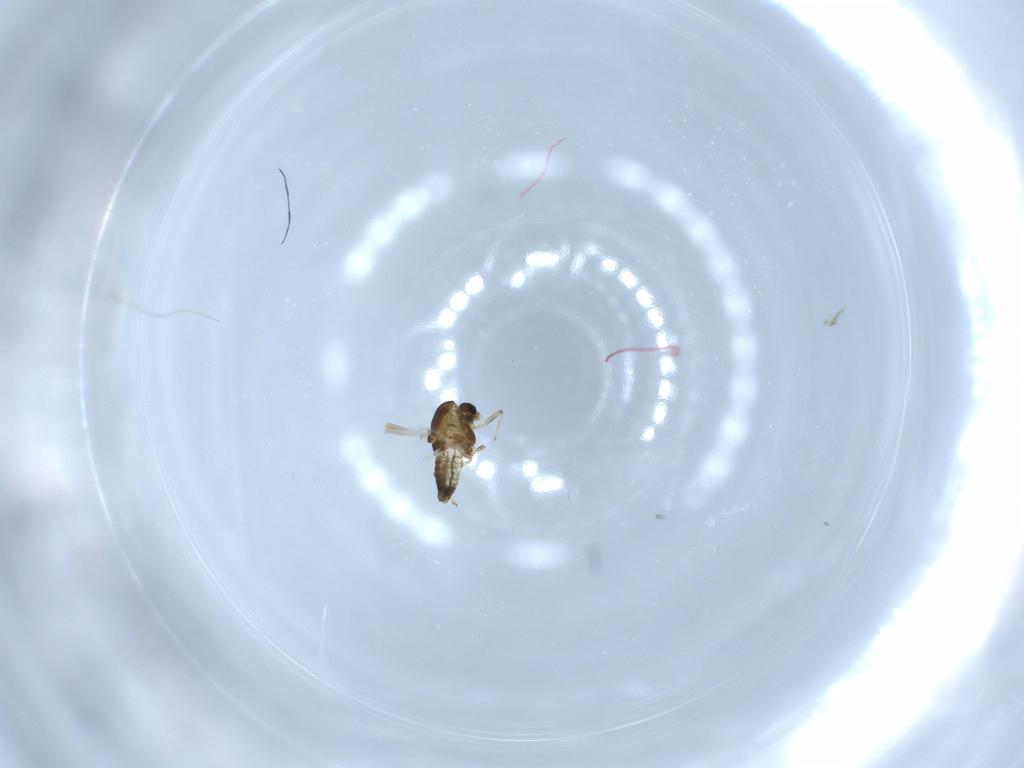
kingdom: Animalia
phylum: Arthropoda
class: Insecta
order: Diptera
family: Chironomidae
